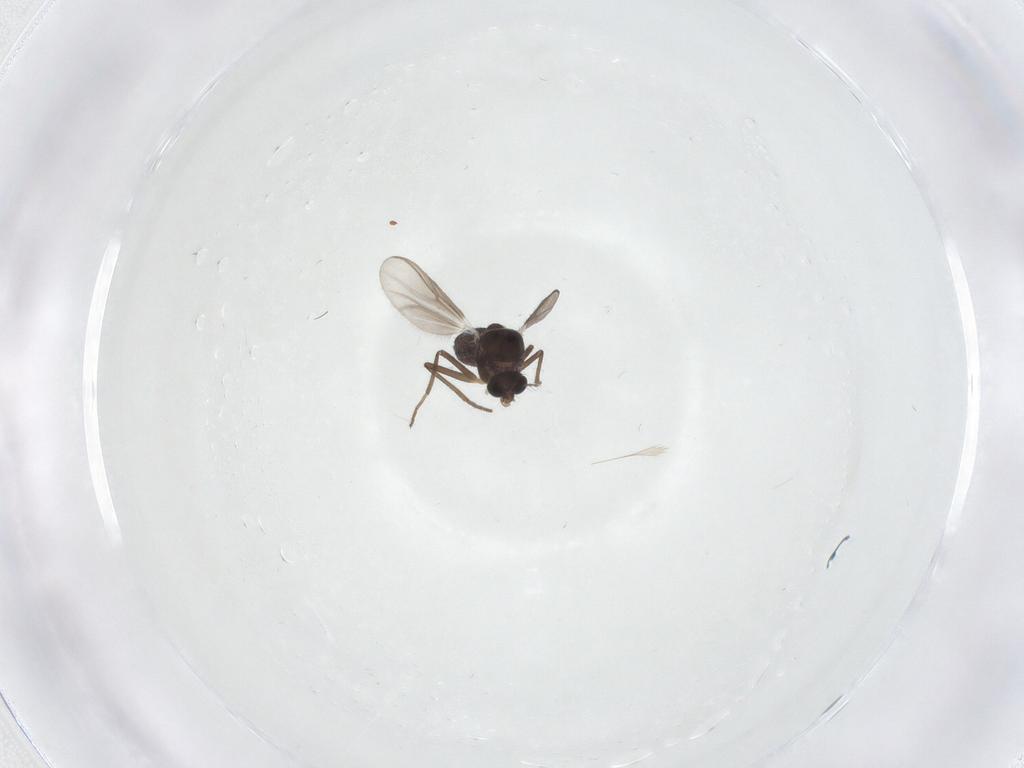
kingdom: Animalia
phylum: Arthropoda
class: Insecta
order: Diptera
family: Chironomidae
